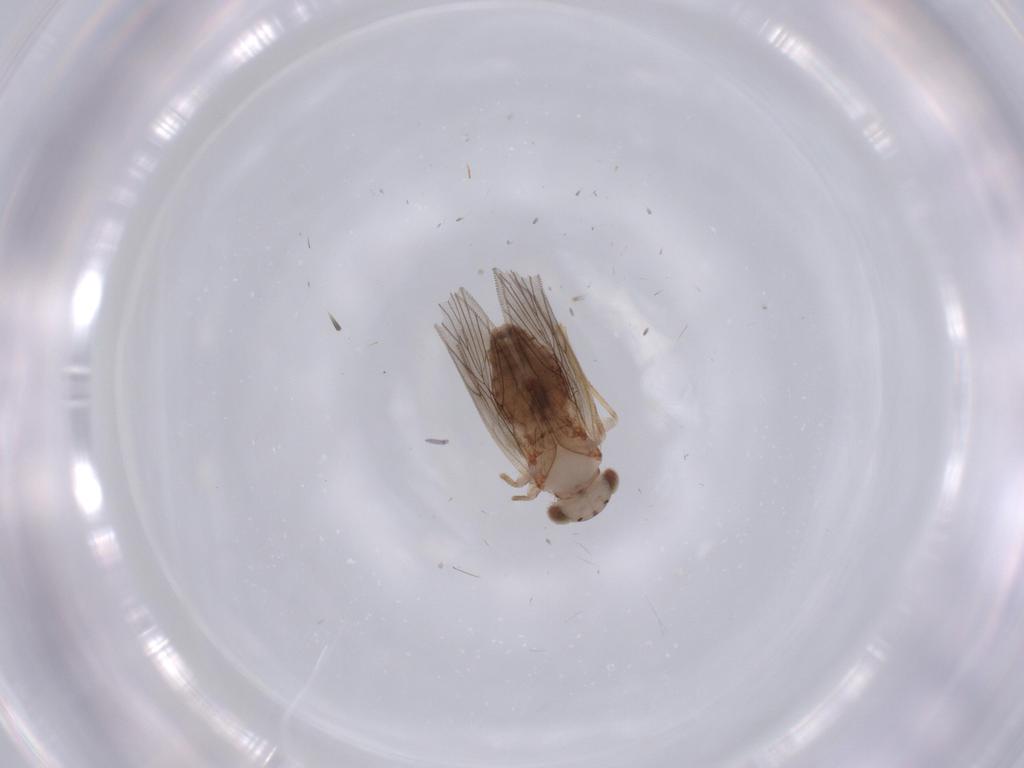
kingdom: Animalia
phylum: Arthropoda
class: Insecta
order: Psocodea
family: Lepidopsocidae
